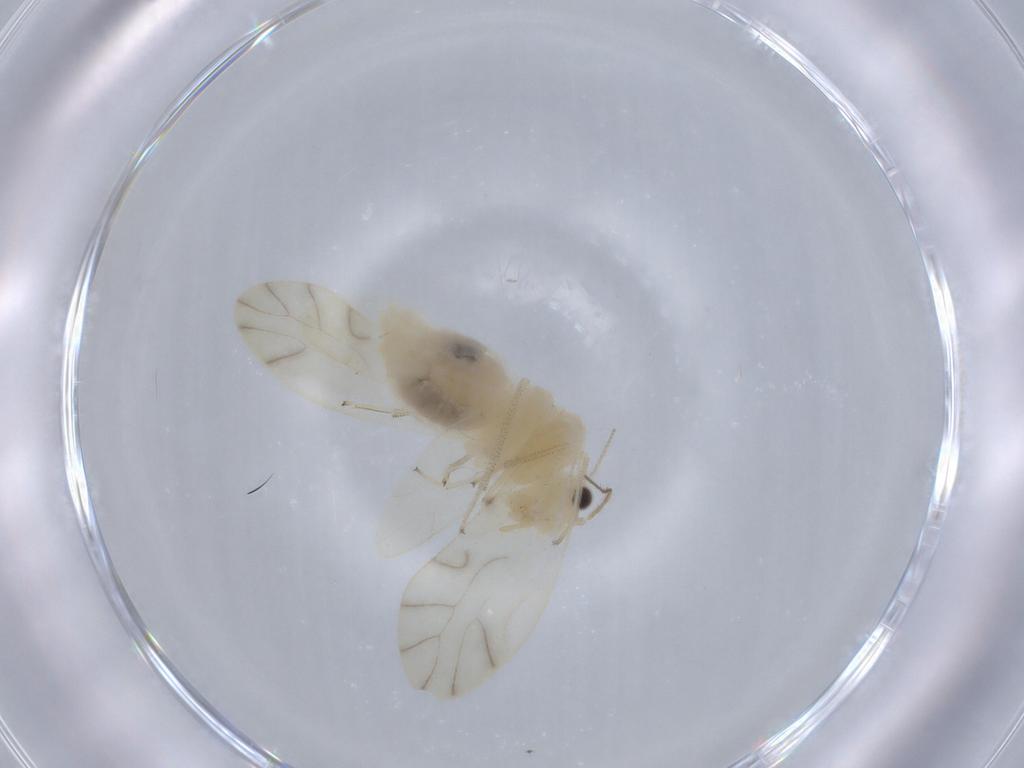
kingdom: Animalia
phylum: Arthropoda
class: Insecta
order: Psocodea
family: Caeciliusidae
